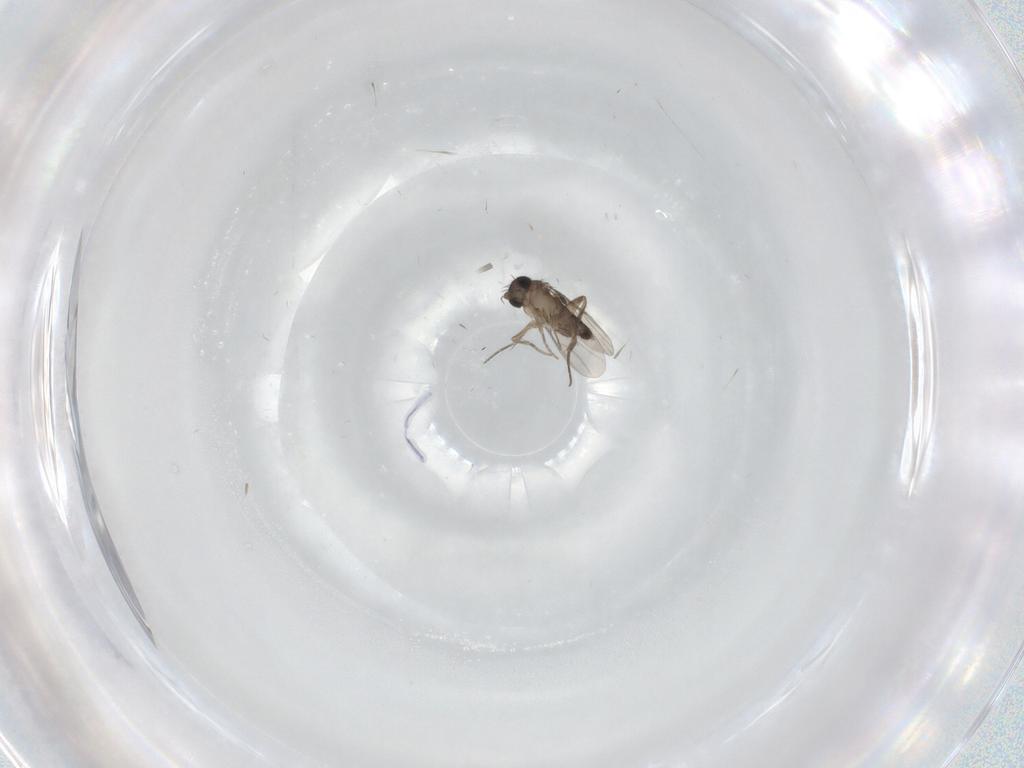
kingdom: Animalia
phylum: Arthropoda
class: Insecta
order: Diptera
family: Phoridae
